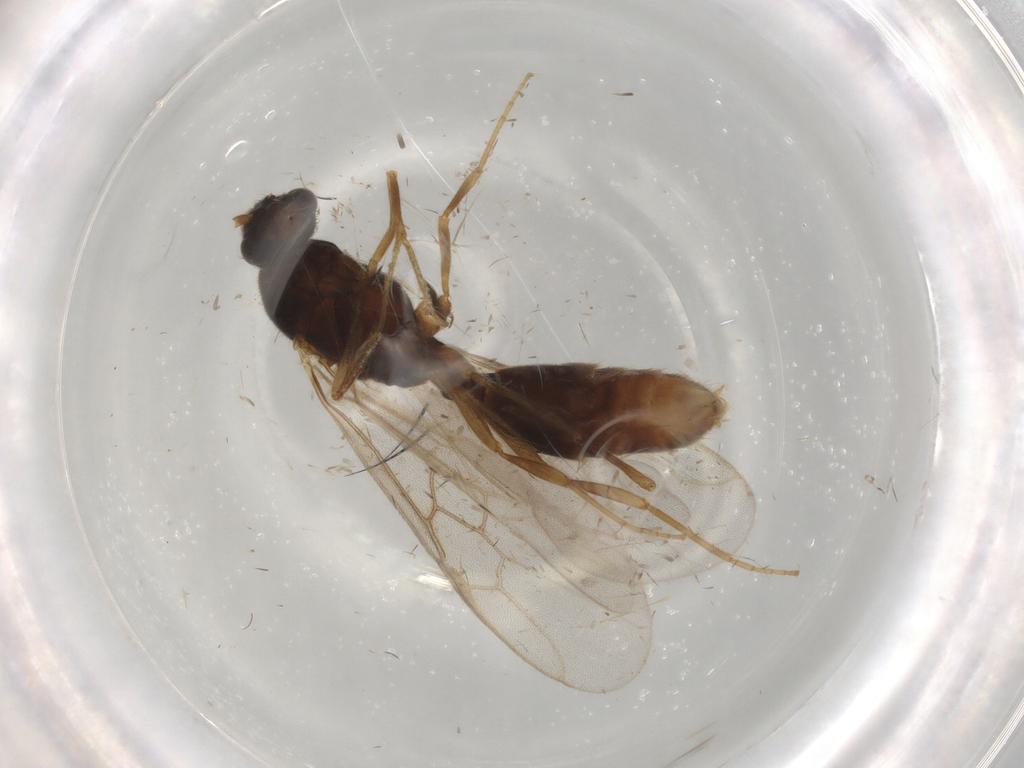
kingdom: Animalia
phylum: Arthropoda
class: Insecta
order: Hymenoptera
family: Formicidae
